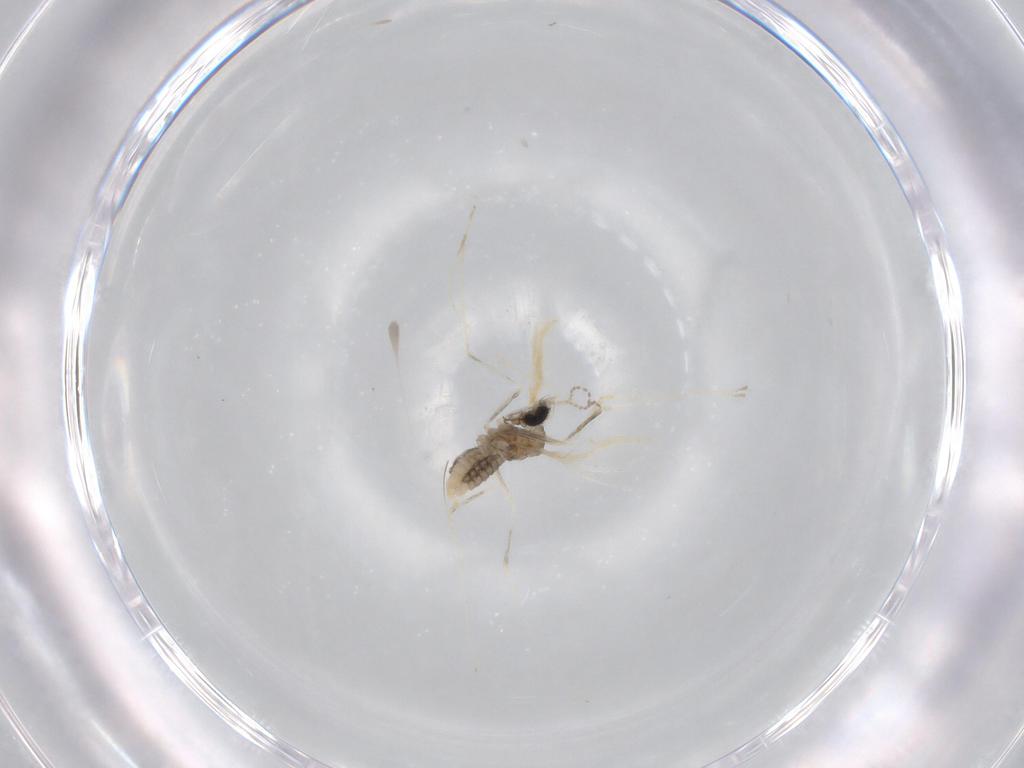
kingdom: Animalia
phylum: Arthropoda
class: Insecta
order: Diptera
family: Cecidomyiidae
